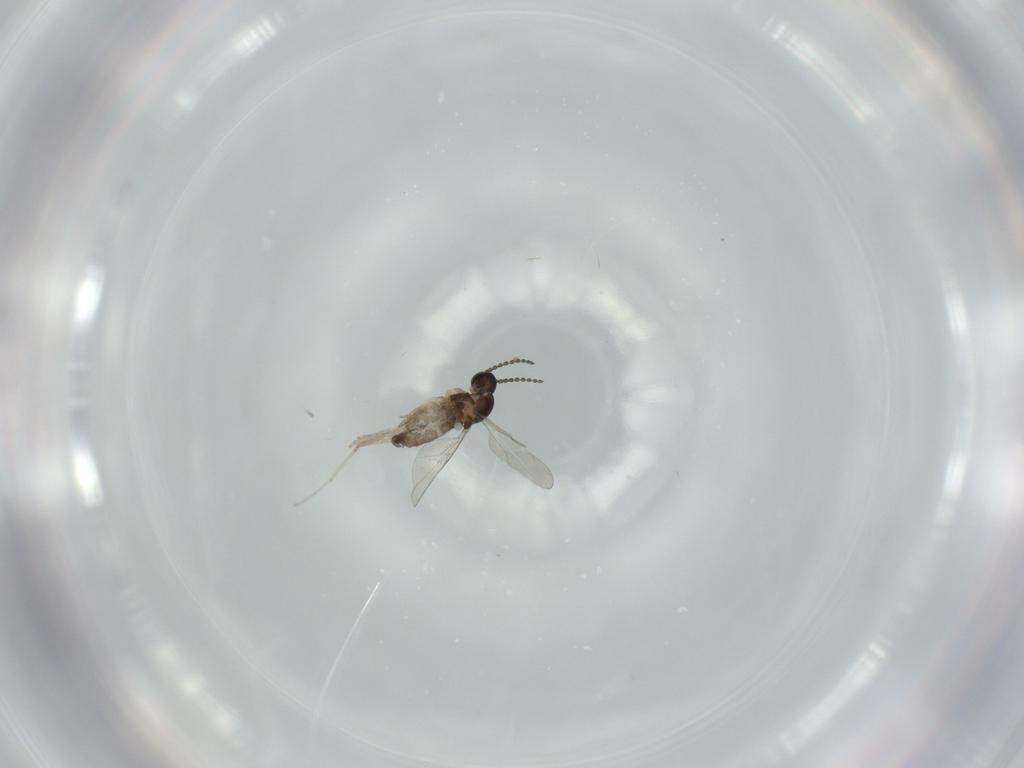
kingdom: Animalia
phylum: Arthropoda
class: Insecta
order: Diptera
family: Cecidomyiidae
